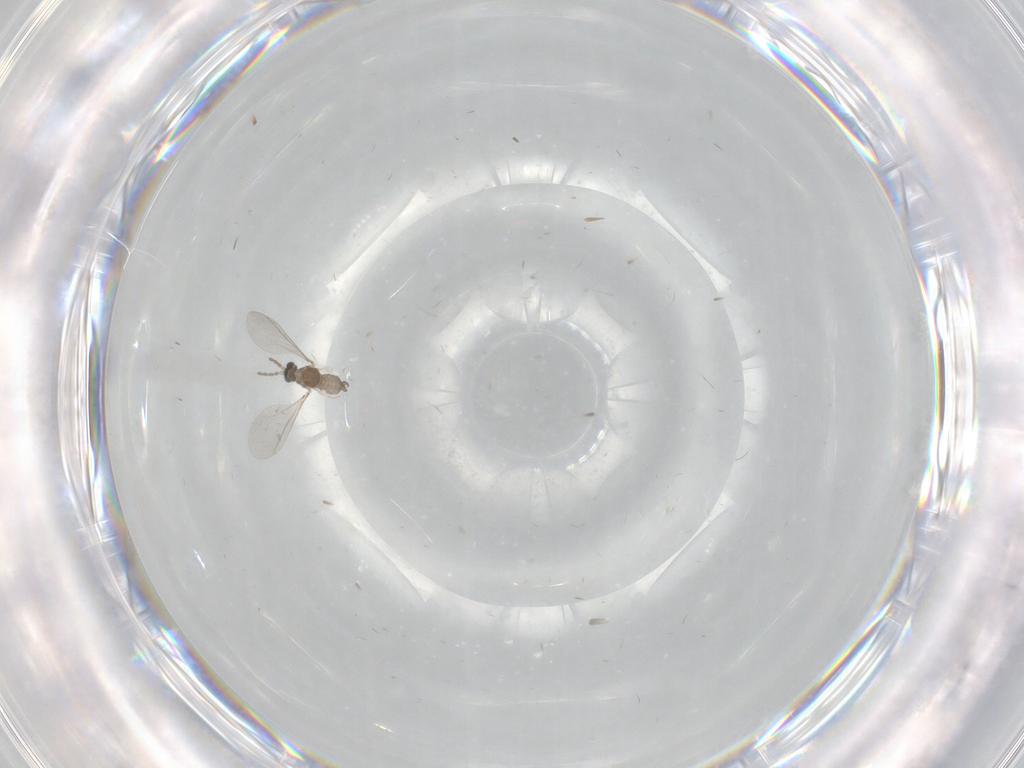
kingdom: Animalia
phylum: Arthropoda
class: Insecta
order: Diptera
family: Cecidomyiidae
